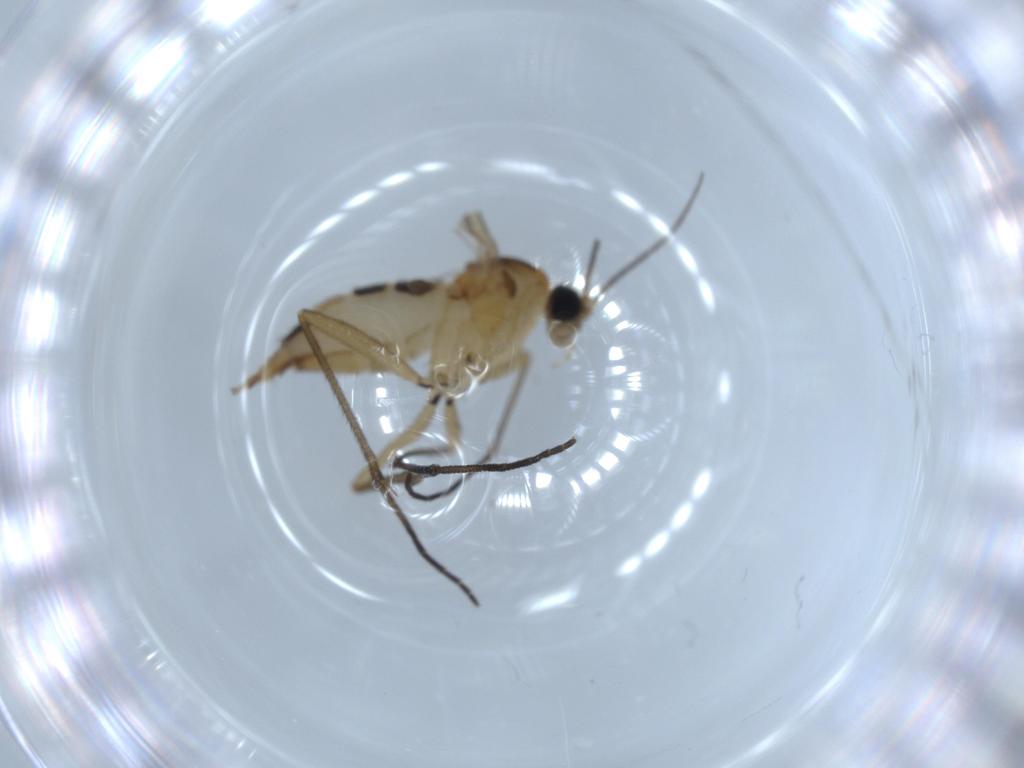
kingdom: Animalia
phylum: Arthropoda
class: Insecta
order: Diptera
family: Sciaridae
